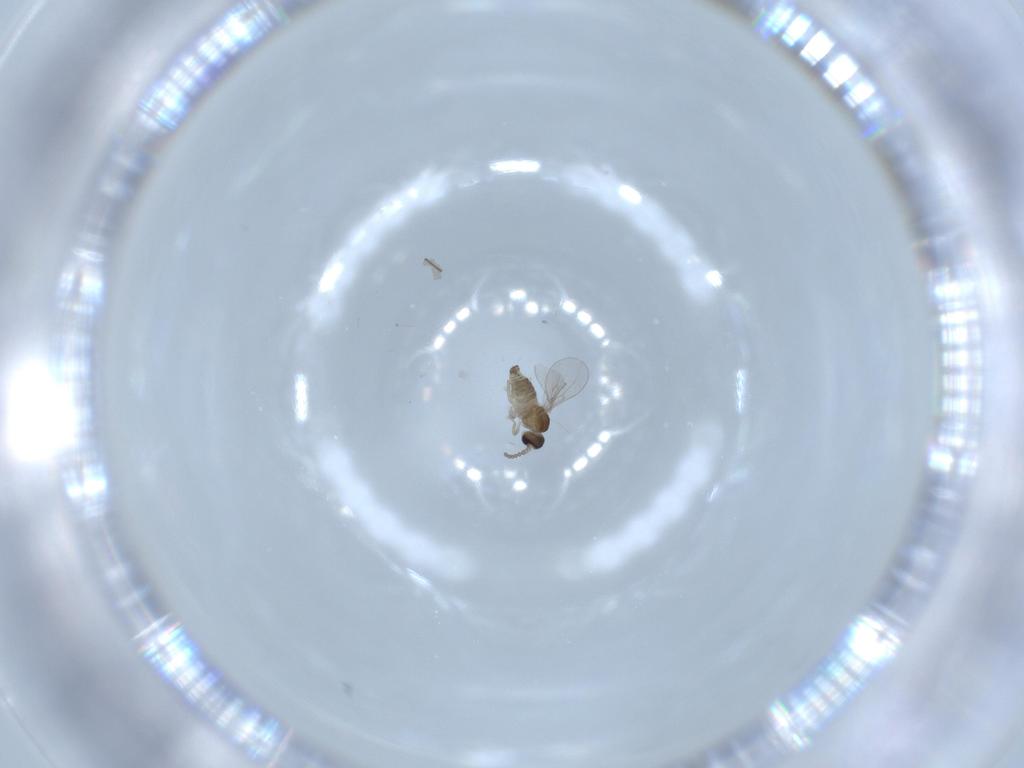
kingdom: Animalia
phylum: Arthropoda
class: Insecta
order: Diptera
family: Cecidomyiidae
